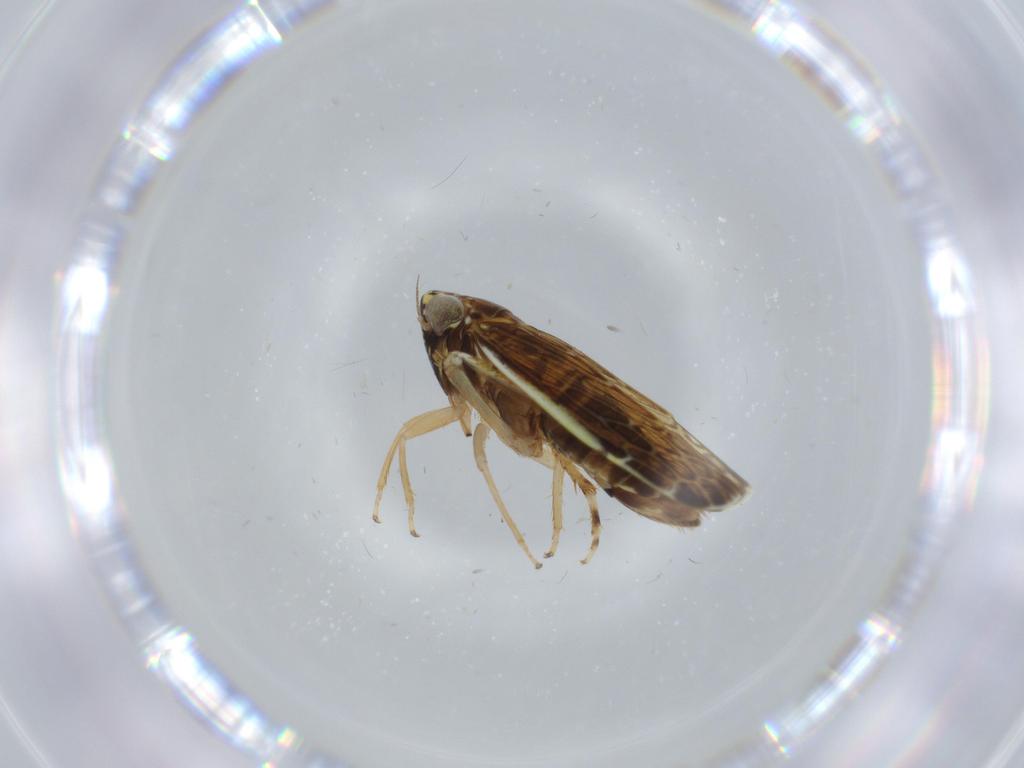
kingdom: Animalia
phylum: Arthropoda
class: Insecta
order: Hemiptera
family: Cicadellidae
